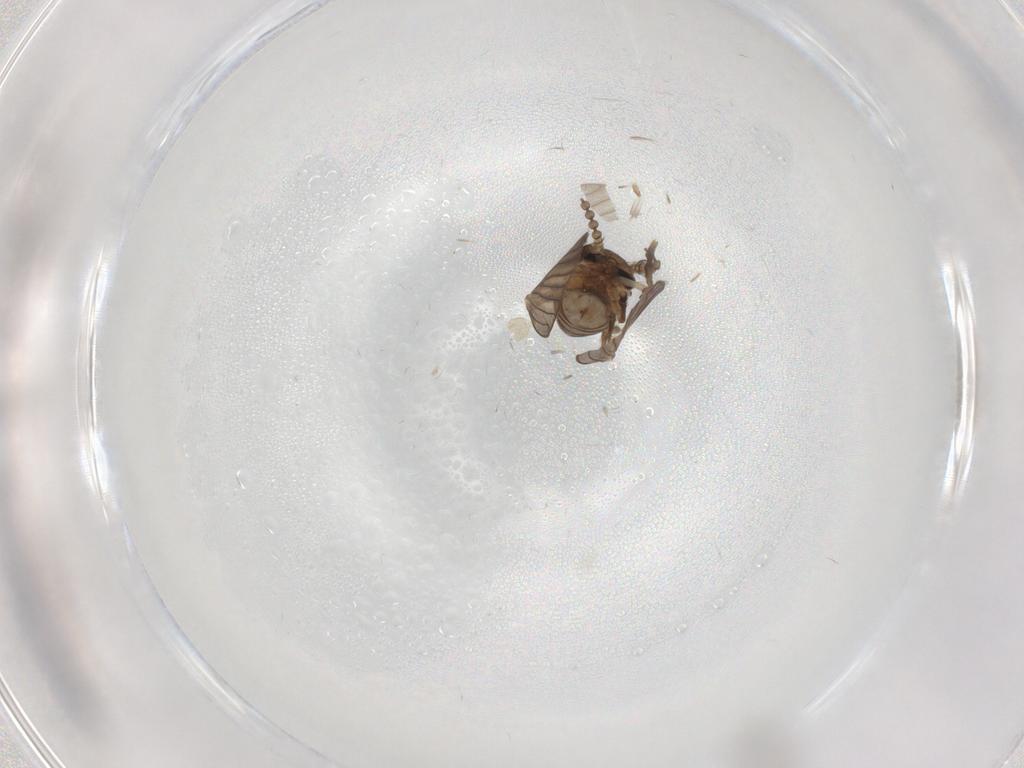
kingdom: Animalia
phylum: Arthropoda
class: Insecta
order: Diptera
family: Psychodidae
